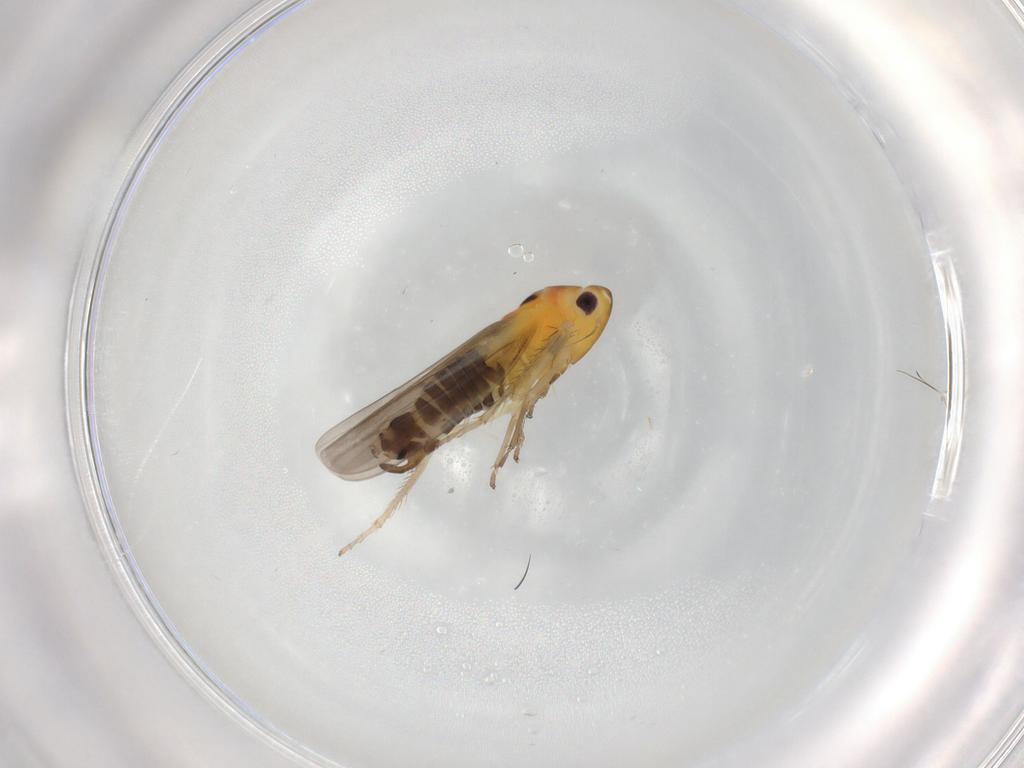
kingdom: Animalia
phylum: Arthropoda
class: Insecta
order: Hemiptera
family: Cicadellidae
